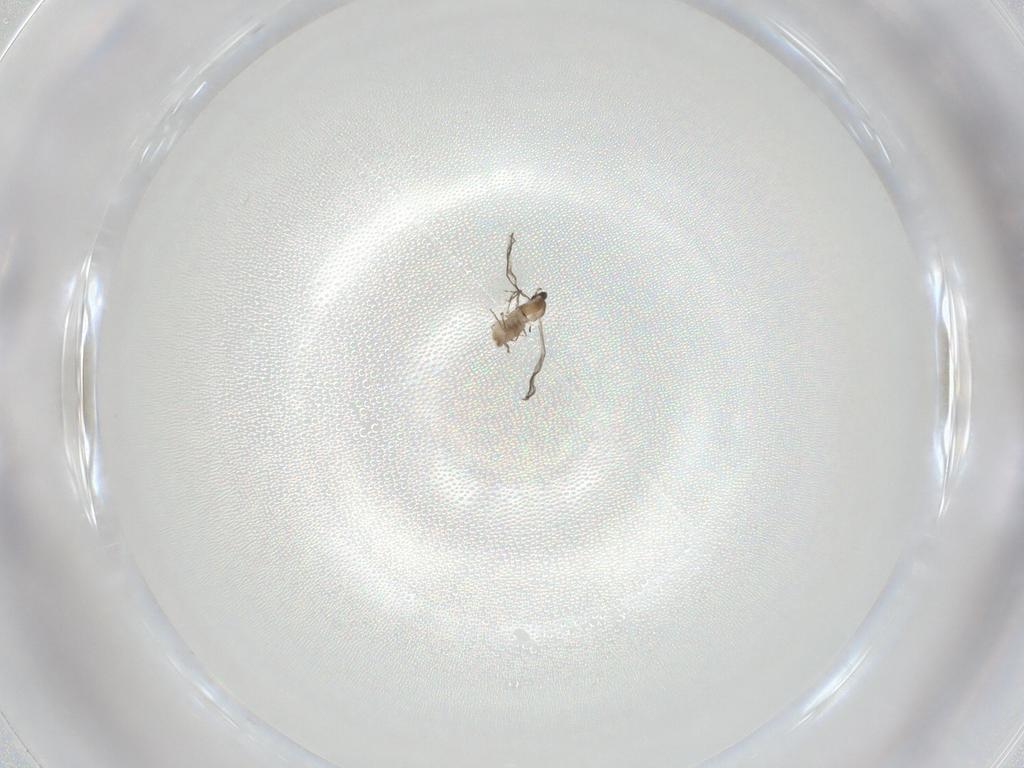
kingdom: Animalia
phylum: Arthropoda
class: Insecta
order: Diptera
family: Cecidomyiidae
